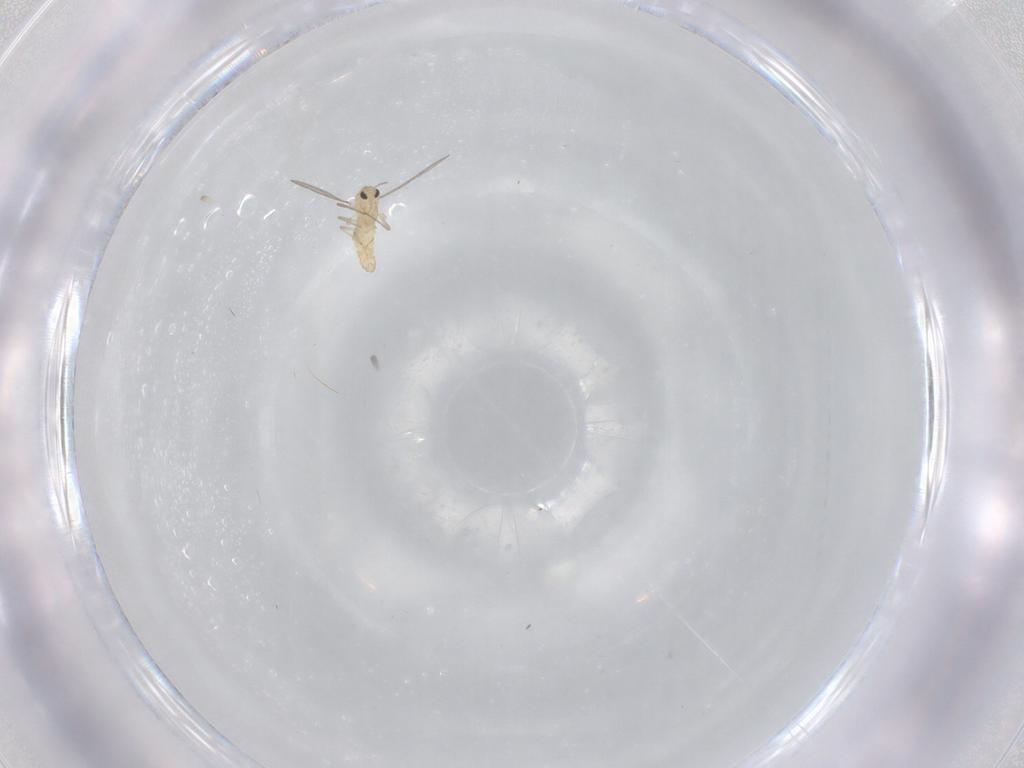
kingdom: Animalia
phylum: Arthropoda
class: Insecta
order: Diptera
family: Chironomidae
